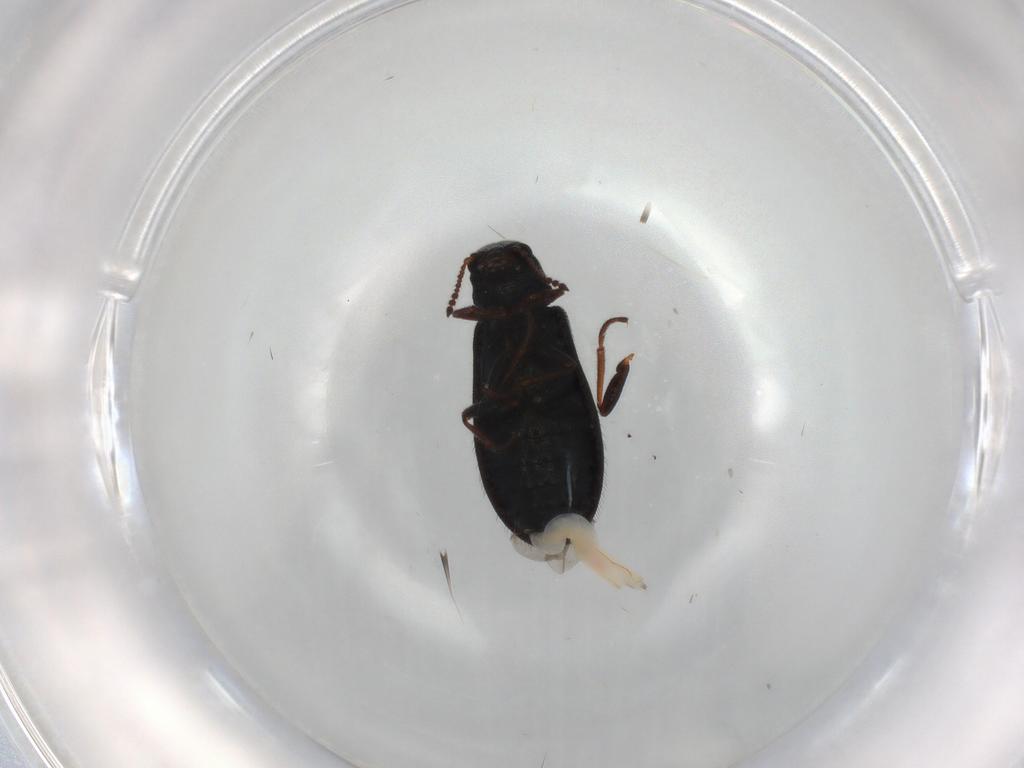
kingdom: Animalia
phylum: Arthropoda
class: Insecta
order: Coleoptera
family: Melyridae
